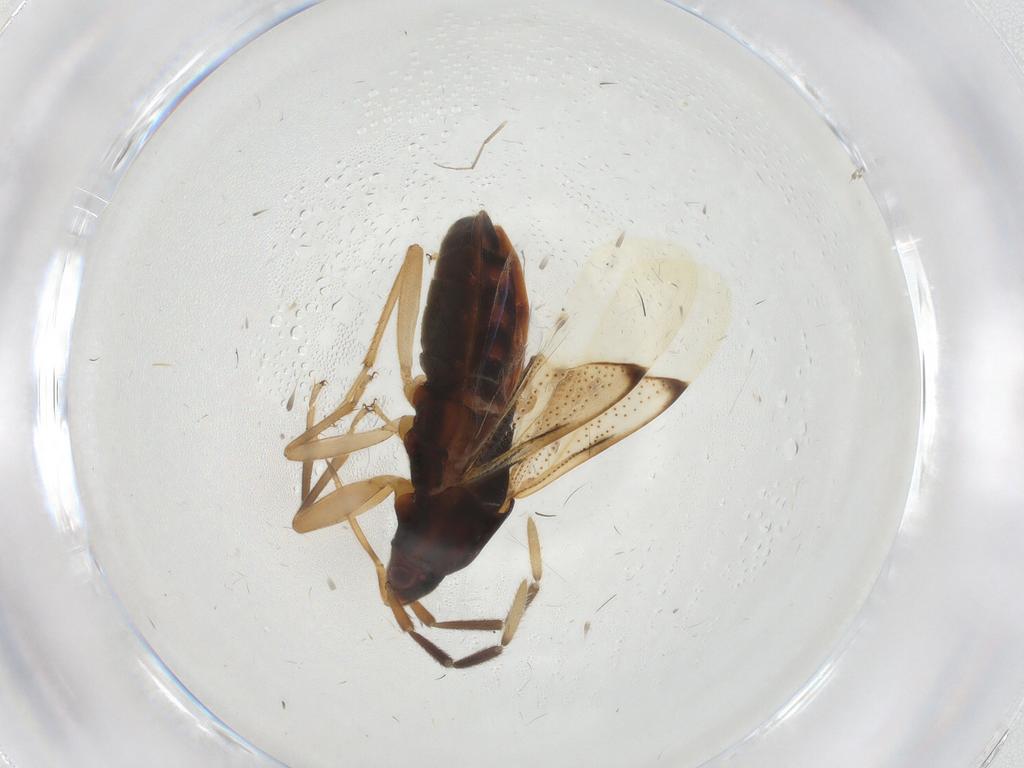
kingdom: Animalia
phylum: Arthropoda
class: Insecta
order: Hemiptera
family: Rhyparochromidae
